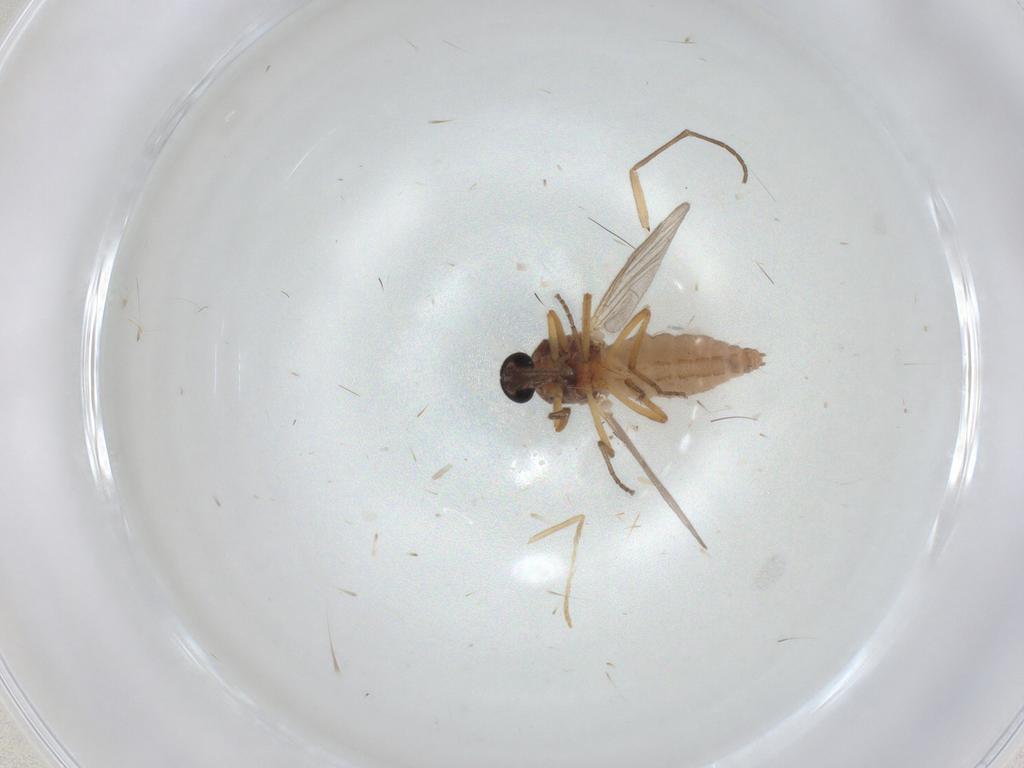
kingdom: Animalia
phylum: Arthropoda
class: Insecta
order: Diptera
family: Ceratopogonidae
